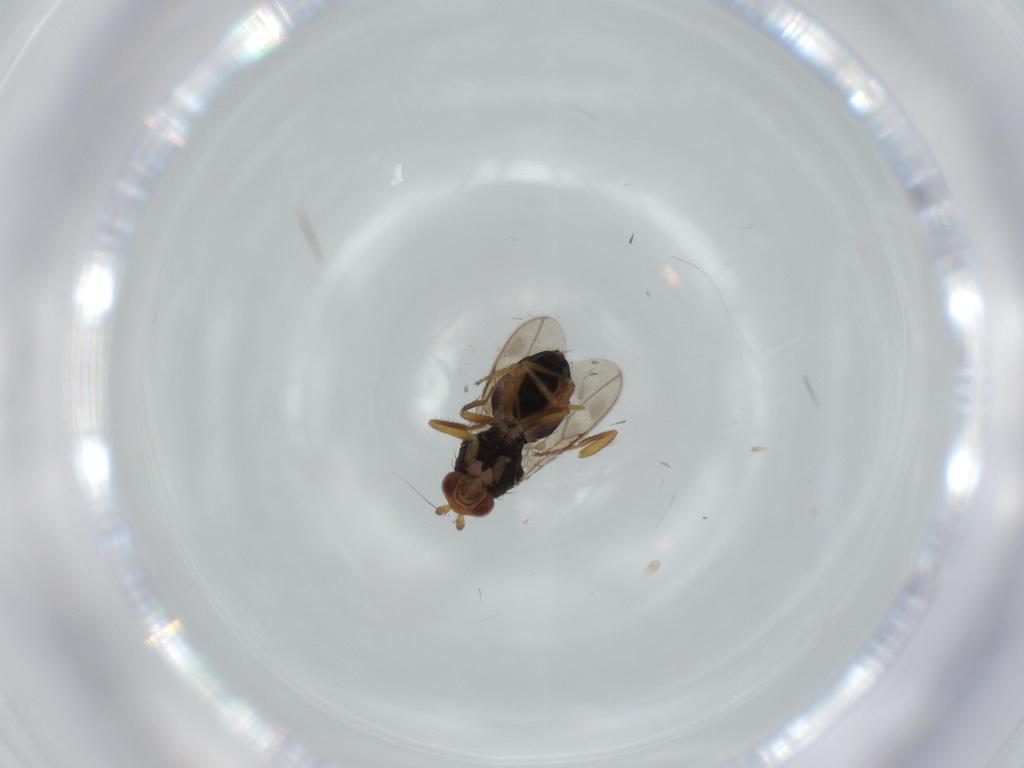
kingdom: Animalia
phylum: Arthropoda
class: Insecta
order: Diptera
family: Sphaeroceridae
